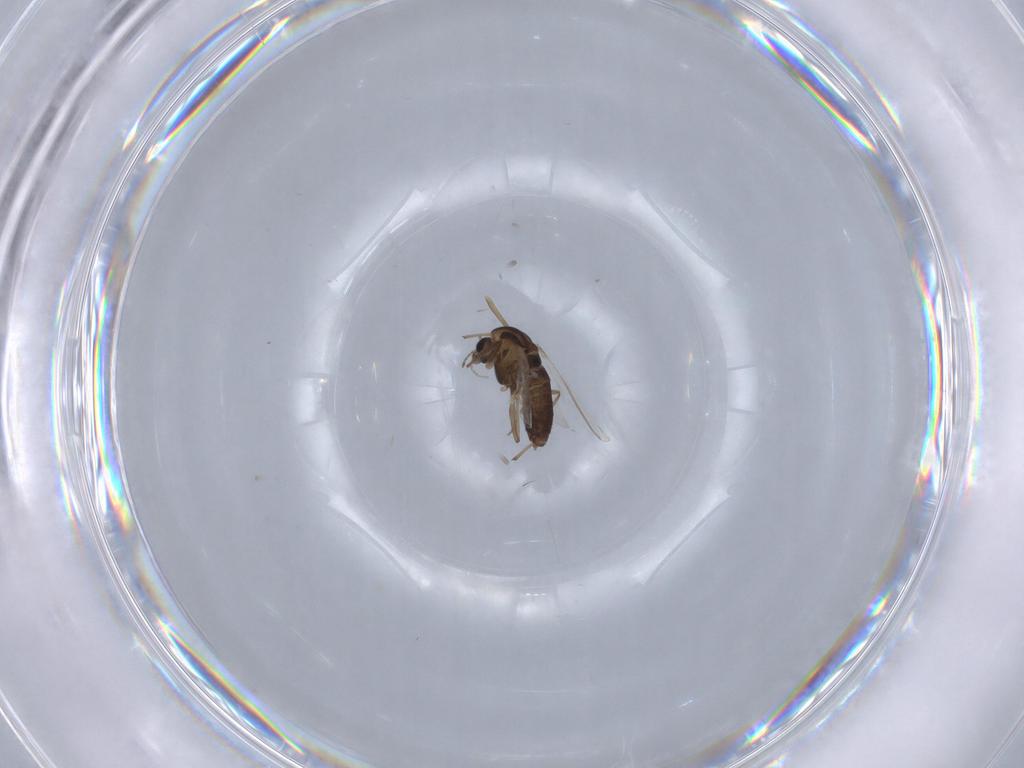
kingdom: Animalia
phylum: Arthropoda
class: Insecta
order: Diptera
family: Chironomidae
